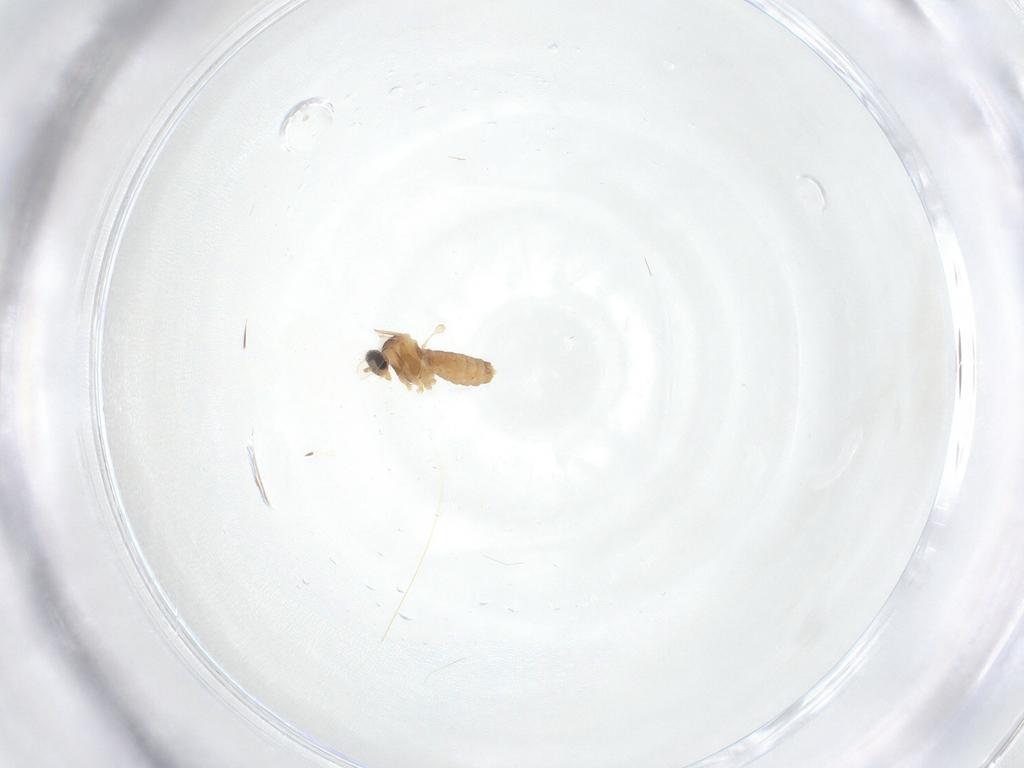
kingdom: Animalia
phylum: Arthropoda
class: Insecta
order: Diptera
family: Cecidomyiidae
